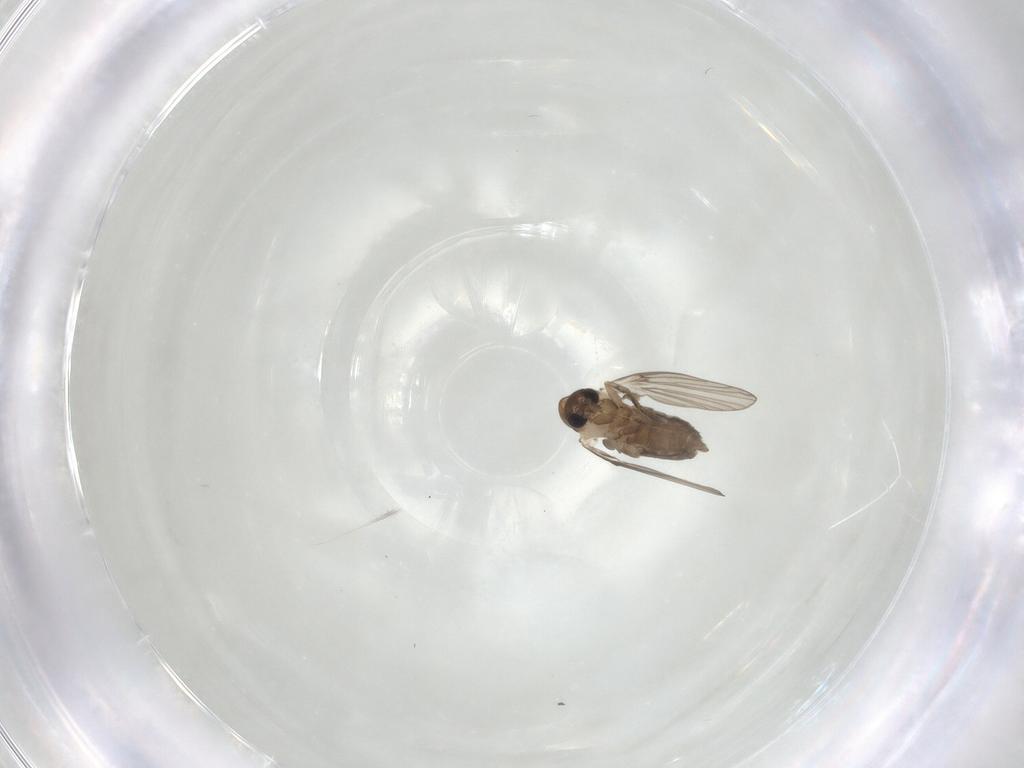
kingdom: Animalia
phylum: Arthropoda
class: Insecta
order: Diptera
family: Psychodidae
